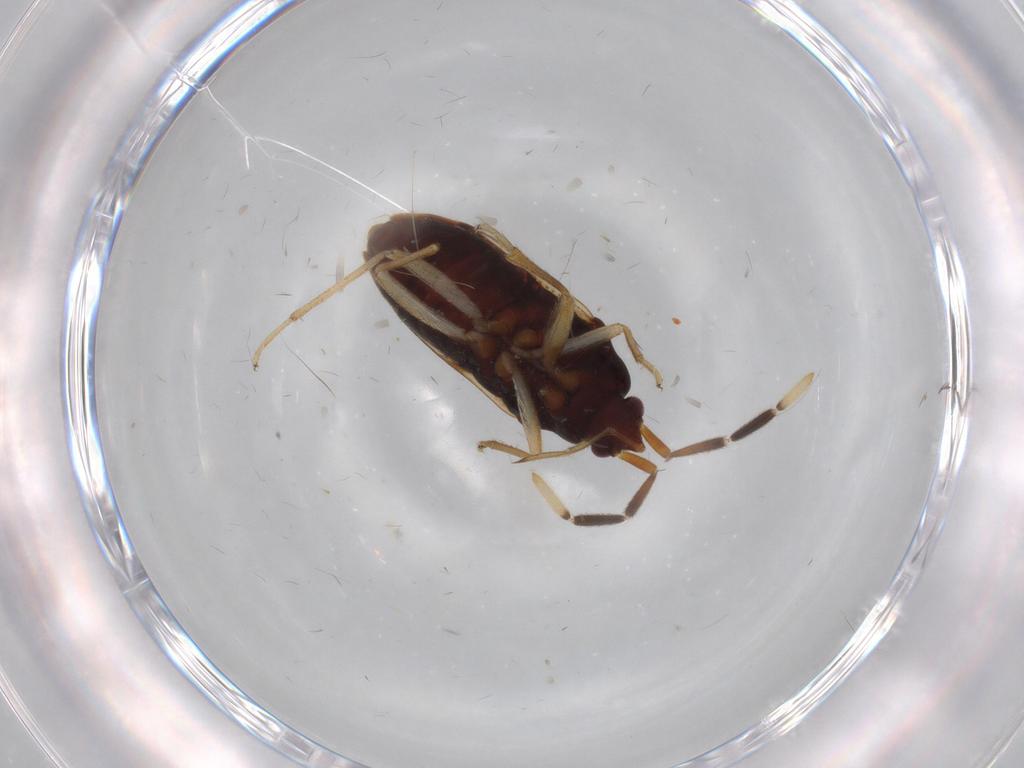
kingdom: Animalia
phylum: Arthropoda
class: Insecta
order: Hemiptera
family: Rhyparochromidae
